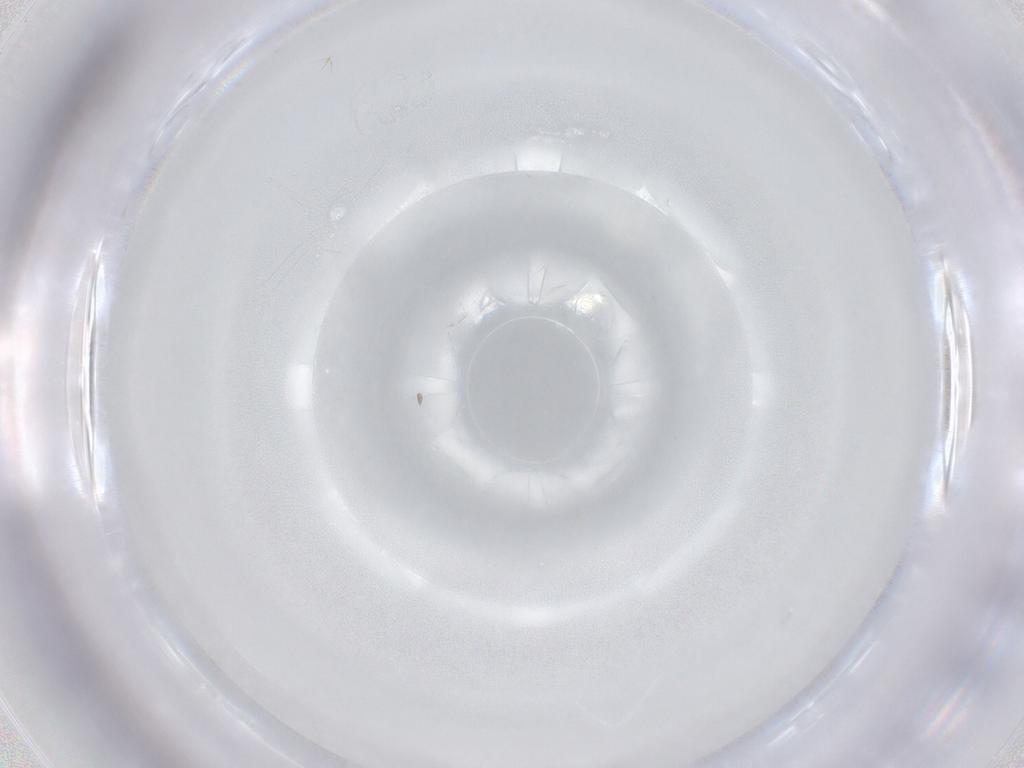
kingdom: Animalia
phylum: Arthropoda
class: Insecta
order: Diptera
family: Chironomidae
